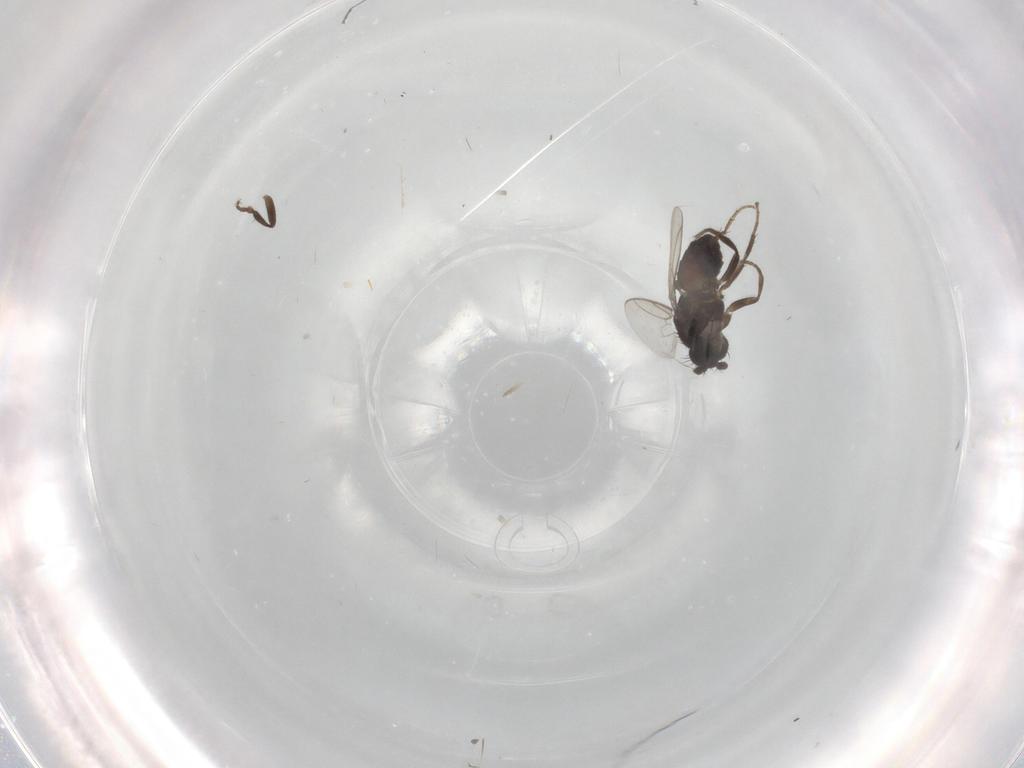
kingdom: Animalia
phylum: Arthropoda
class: Insecta
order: Diptera
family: Sphaeroceridae
